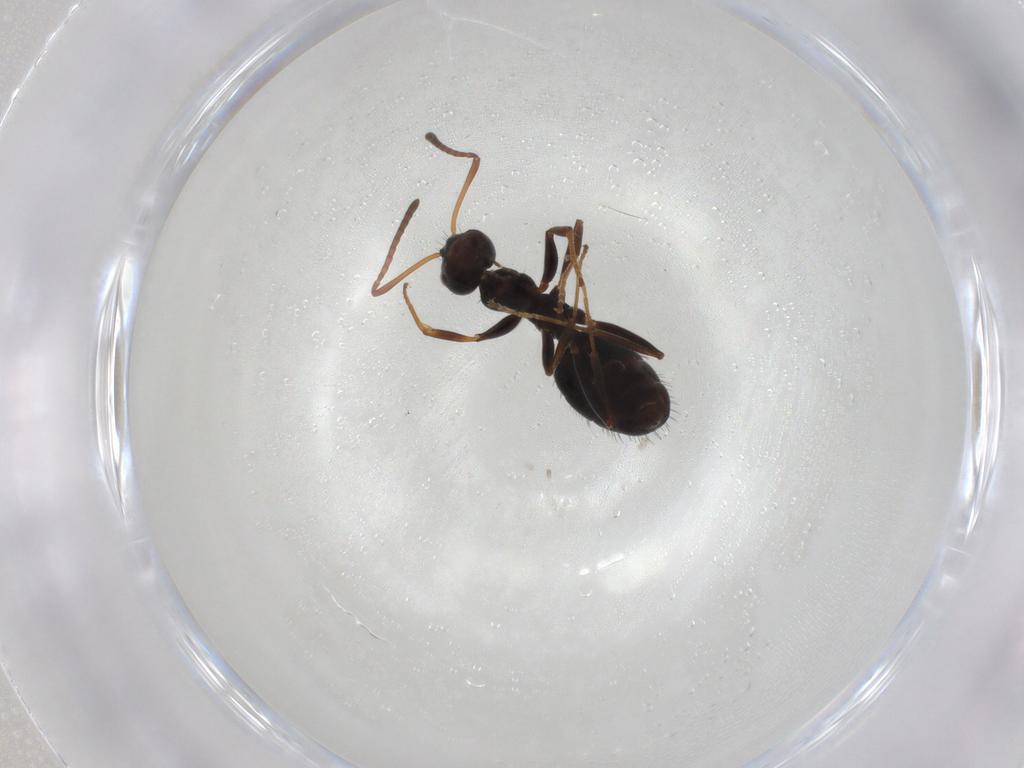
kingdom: Animalia
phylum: Arthropoda
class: Insecta
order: Hymenoptera
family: Formicidae
